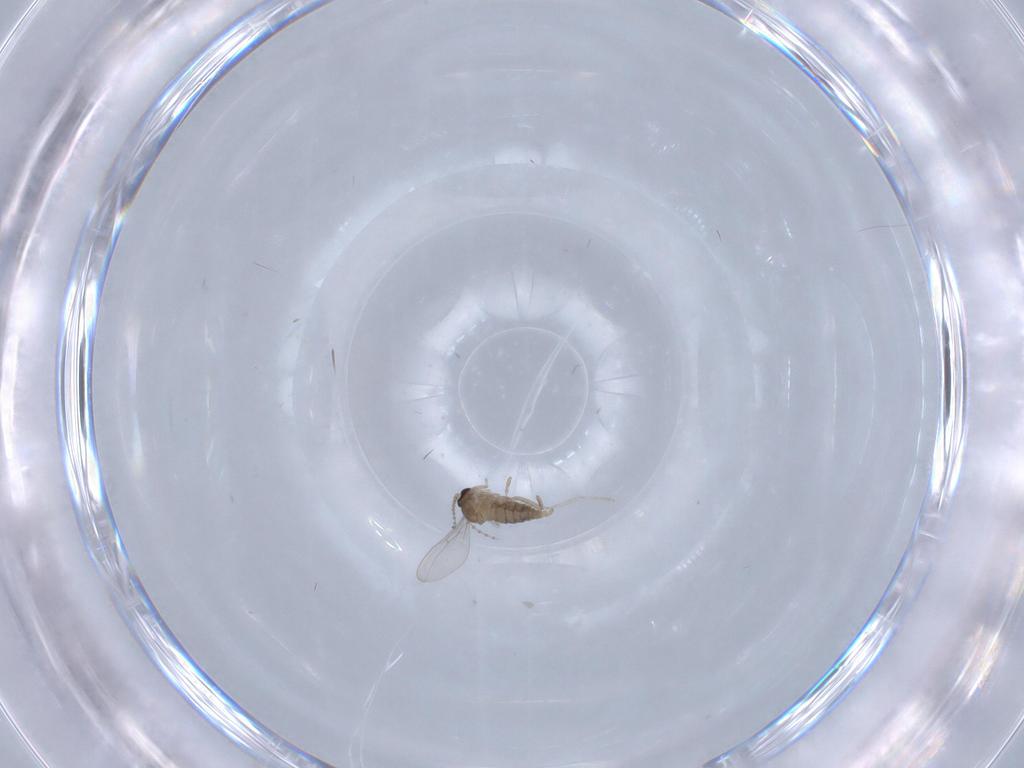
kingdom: Animalia
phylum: Arthropoda
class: Insecta
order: Diptera
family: Cecidomyiidae
